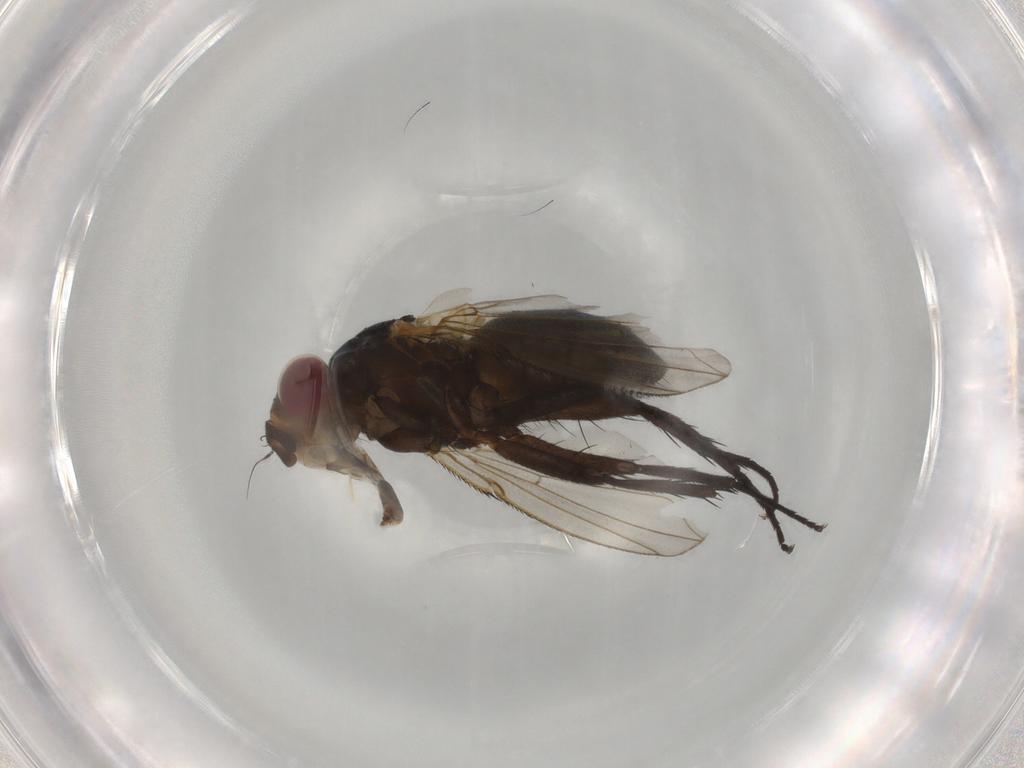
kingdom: Animalia
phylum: Arthropoda
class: Insecta
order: Diptera
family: Calliphoridae
